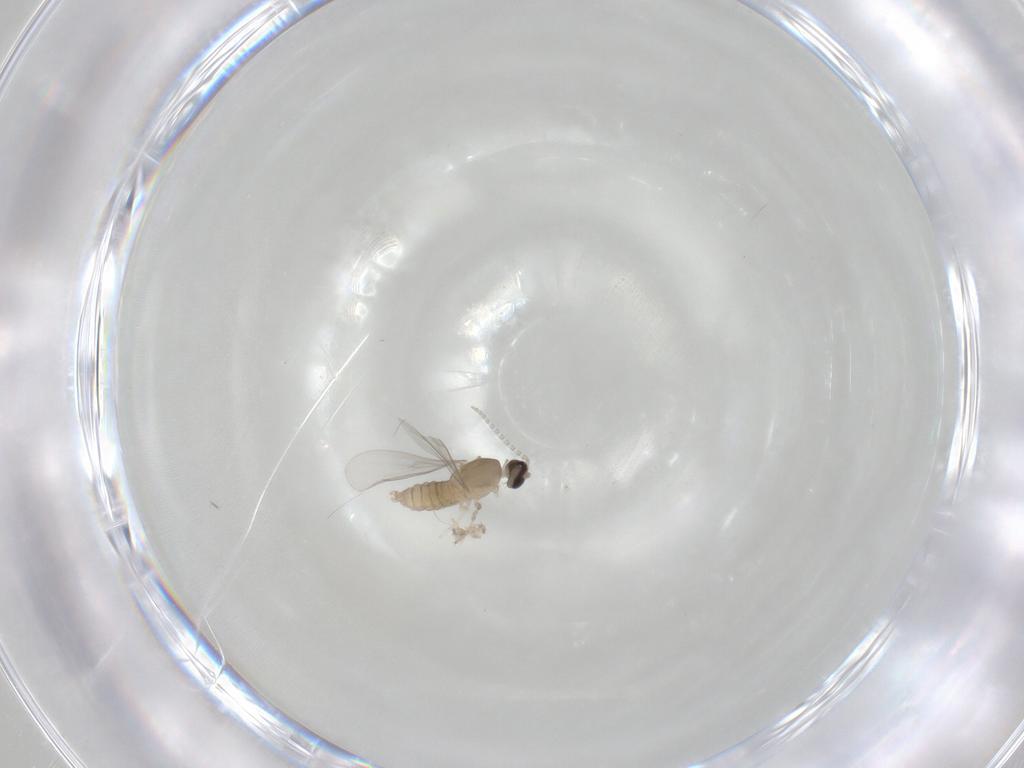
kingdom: Animalia
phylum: Arthropoda
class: Insecta
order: Diptera
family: Cecidomyiidae
